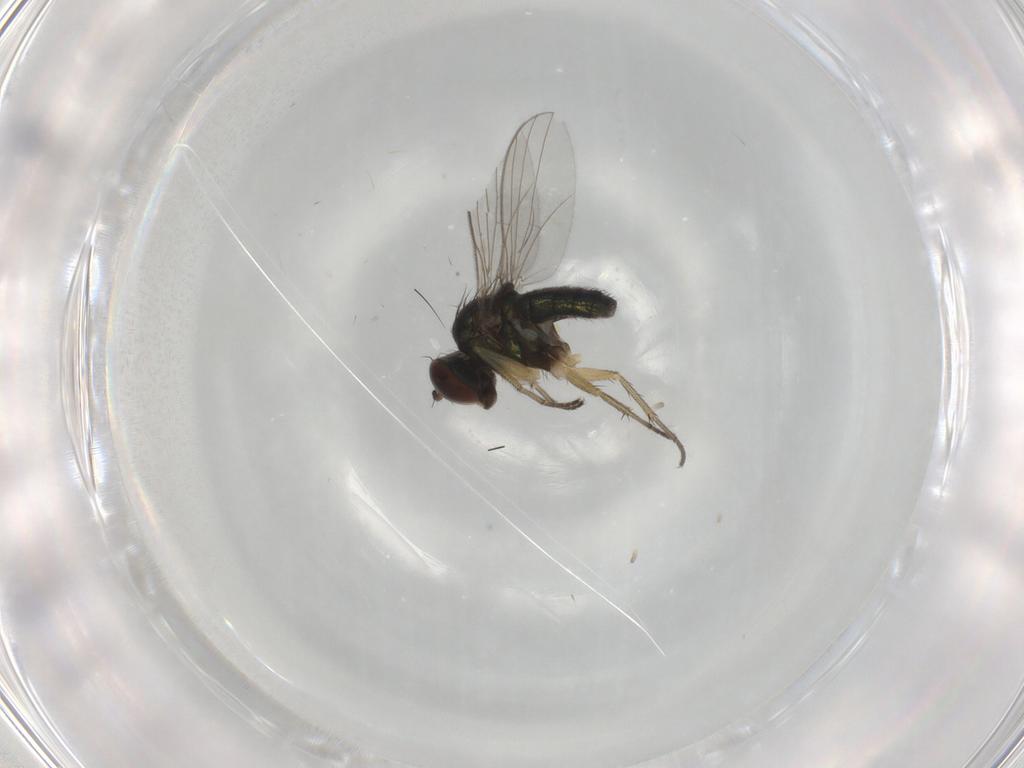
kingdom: Animalia
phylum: Arthropoda
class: Insecta
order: Diptera
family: Dolichopodidae
